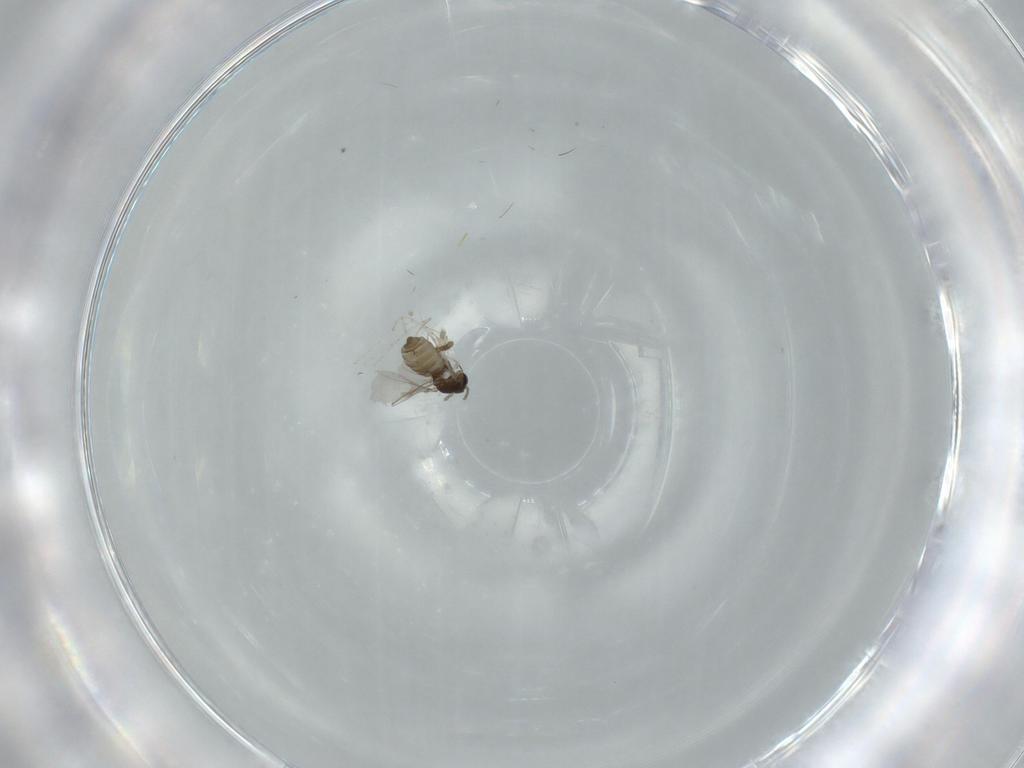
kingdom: Animalia
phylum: Arthropoda
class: Insecta
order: Diptera
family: Cecidomyiidae
